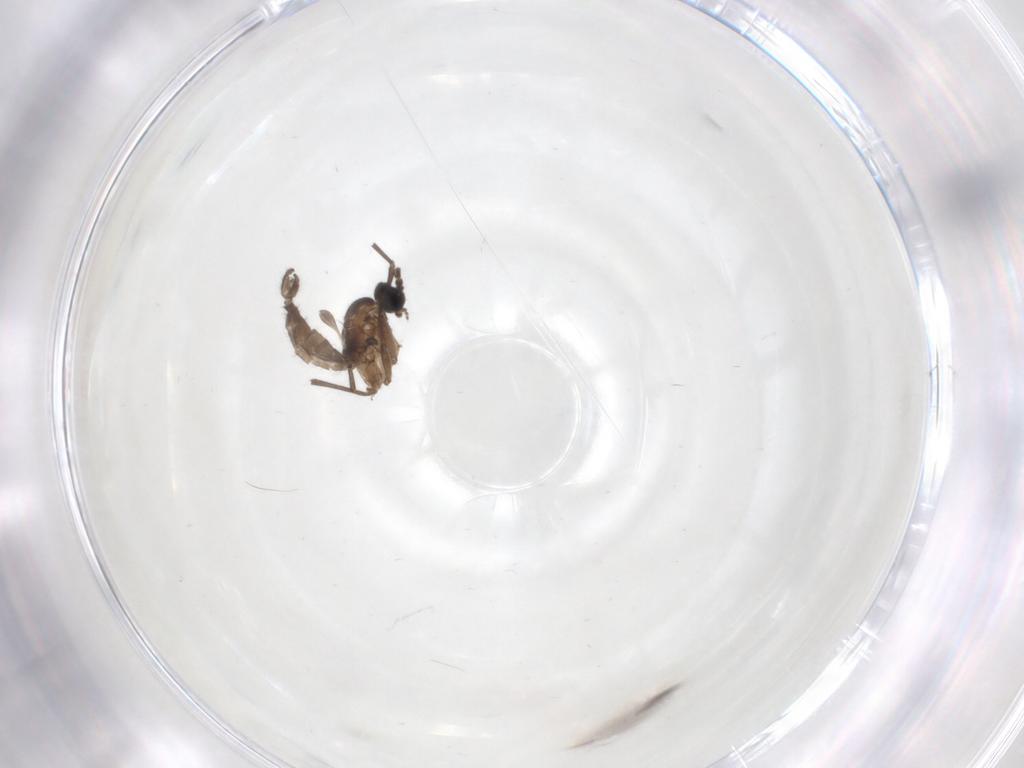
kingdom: Animalia
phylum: Arthropoda
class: Insecta
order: Diptera
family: Sciaridae
